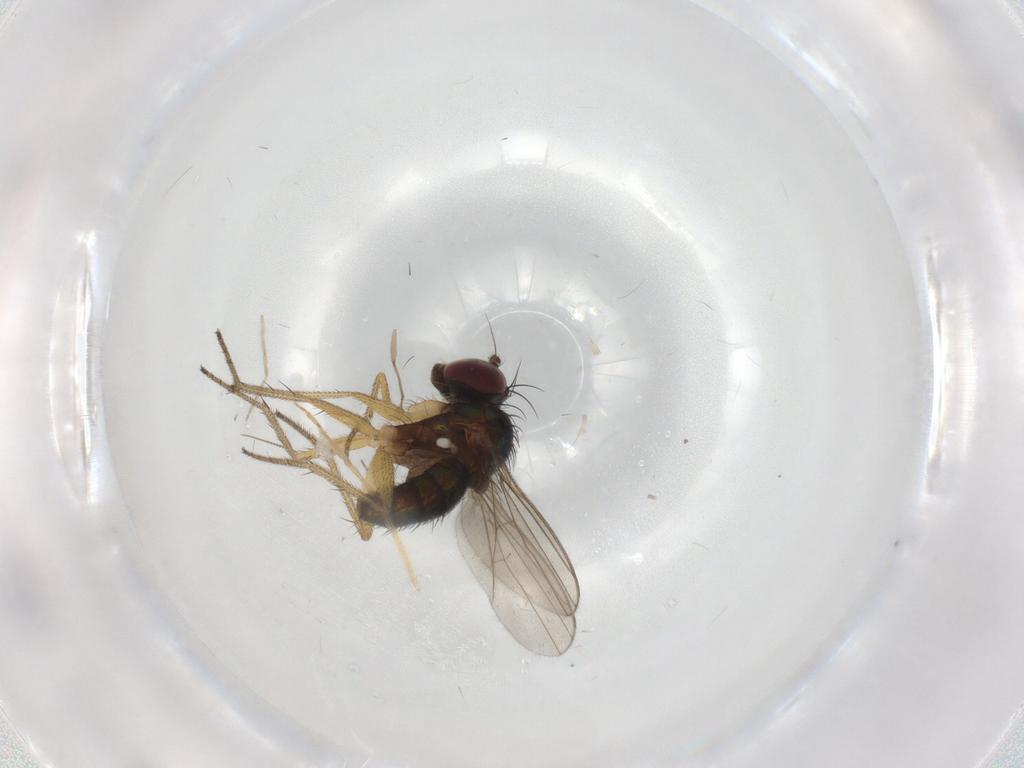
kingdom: Animalia
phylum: Arthropoda
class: Insecta
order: Diptera
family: Chironomidae
